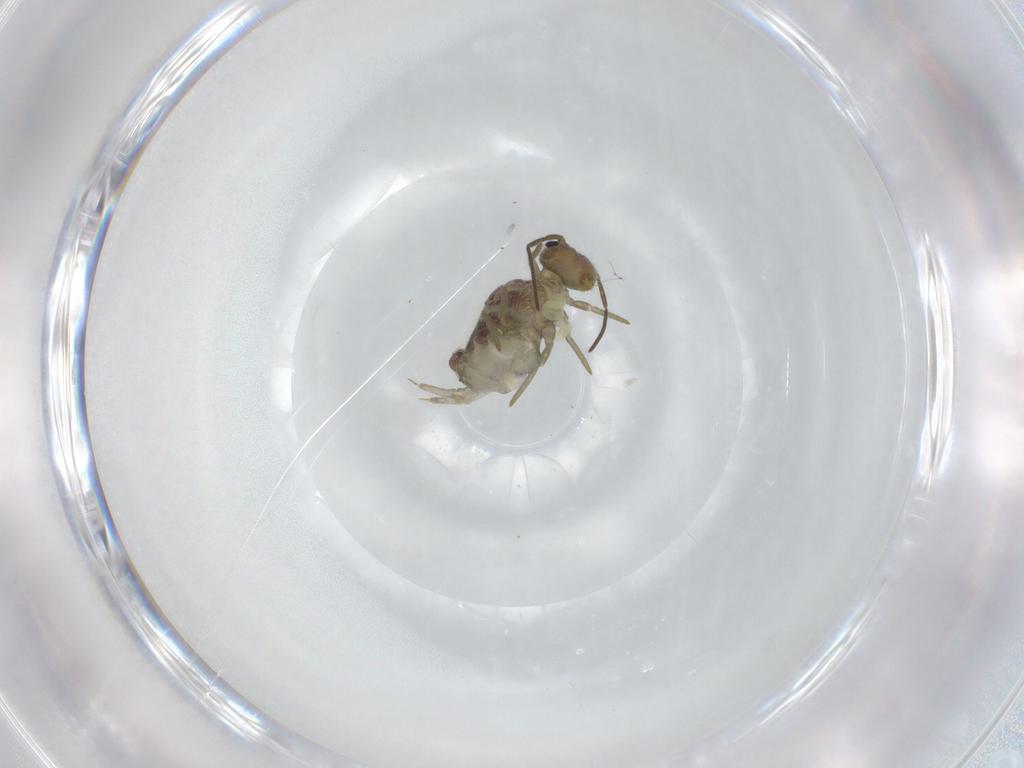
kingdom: Animalia
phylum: Arthropoda
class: Collembola
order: Symphypleona
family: Sminthuridae
